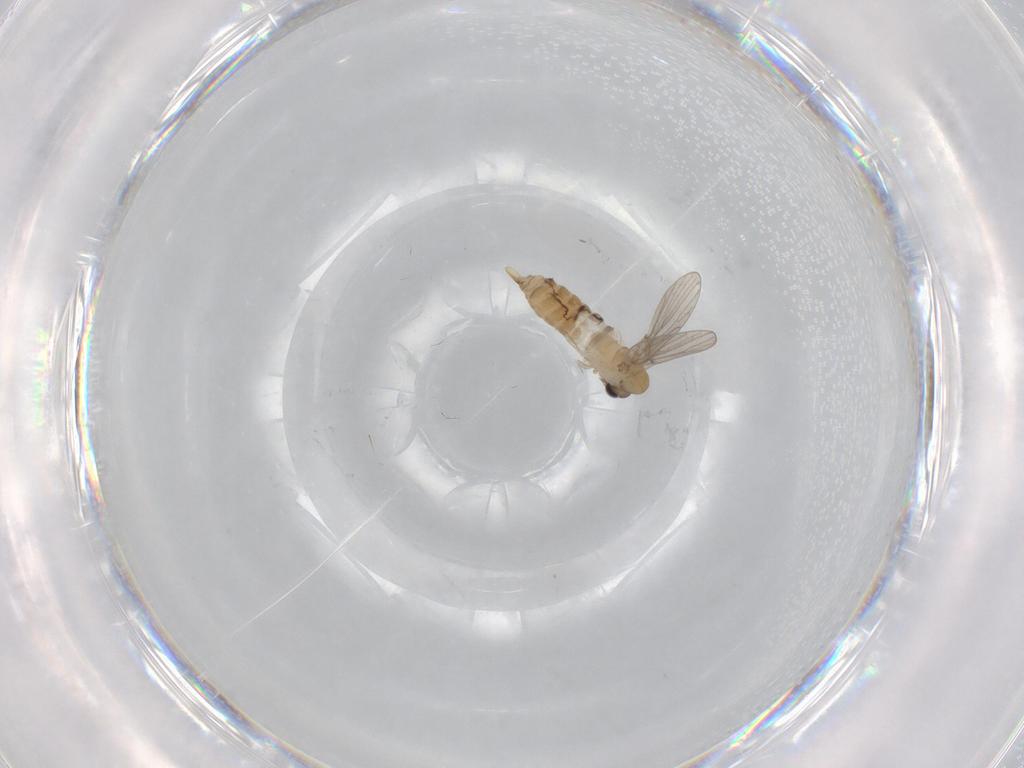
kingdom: Animalia
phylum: Arthropoda
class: Insecta
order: Diptera
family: Psychodidae
